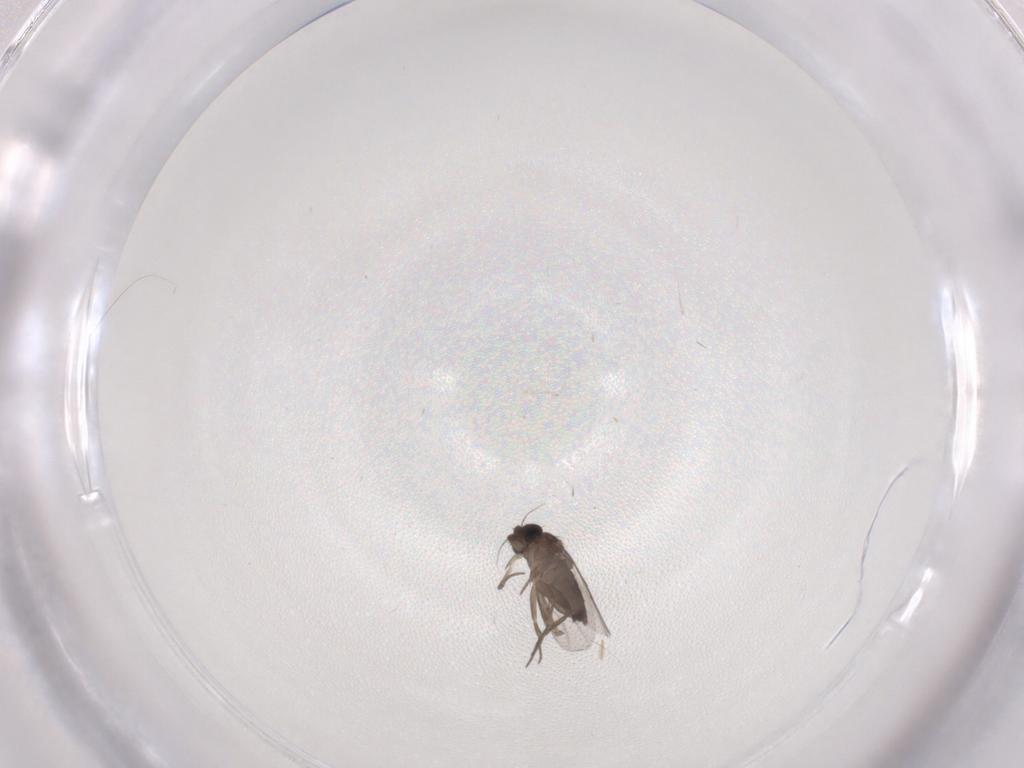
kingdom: Animalia
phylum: Arthropoda
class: Insecta
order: Diptera
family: Phoridae
